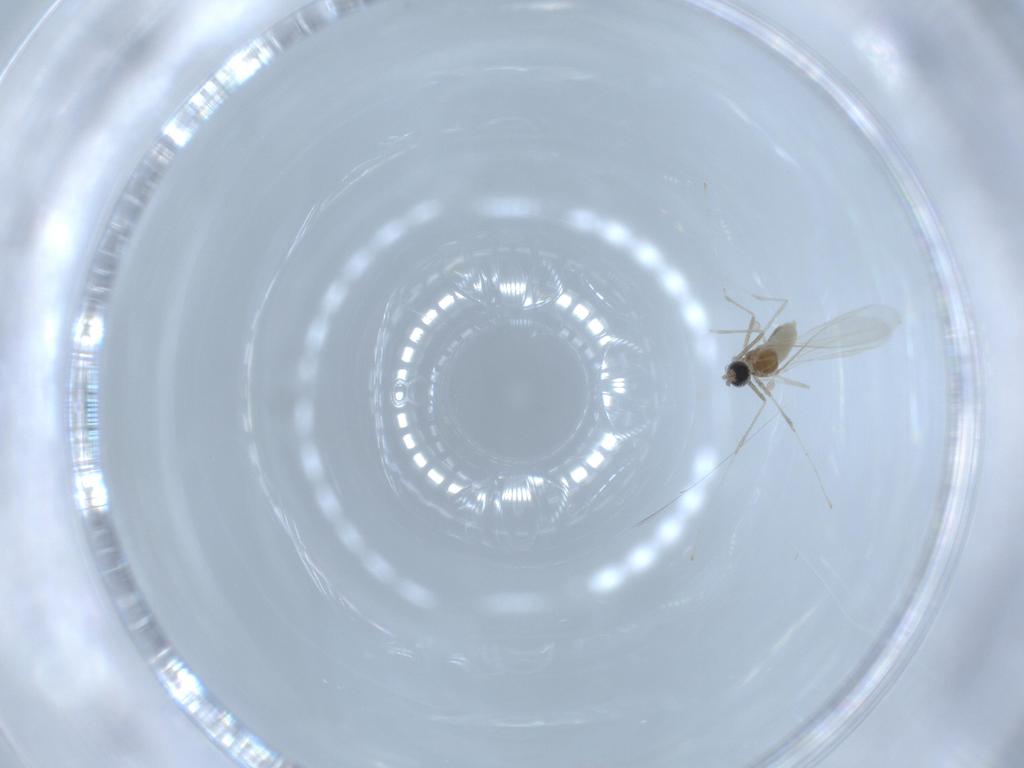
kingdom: Animalia
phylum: Arthropoda
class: Insecta
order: Diptera
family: Cecidomyiidae
